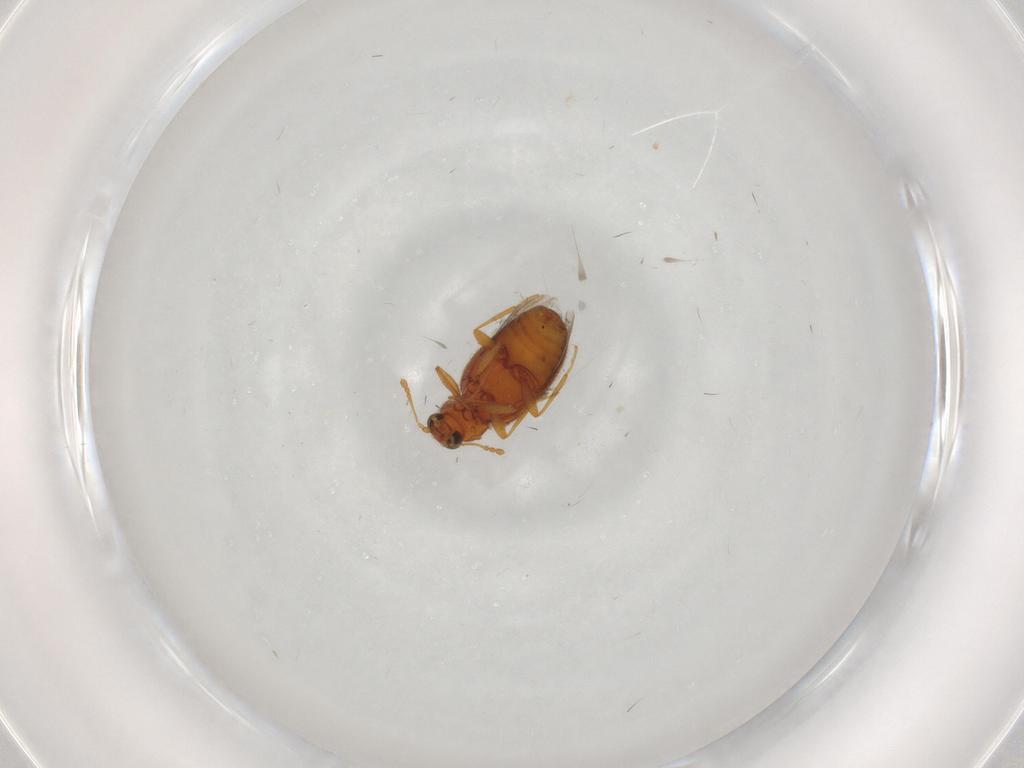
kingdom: Animalia
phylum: Arthropoda
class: Insecta
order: Coleoptera
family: Latridiidae
